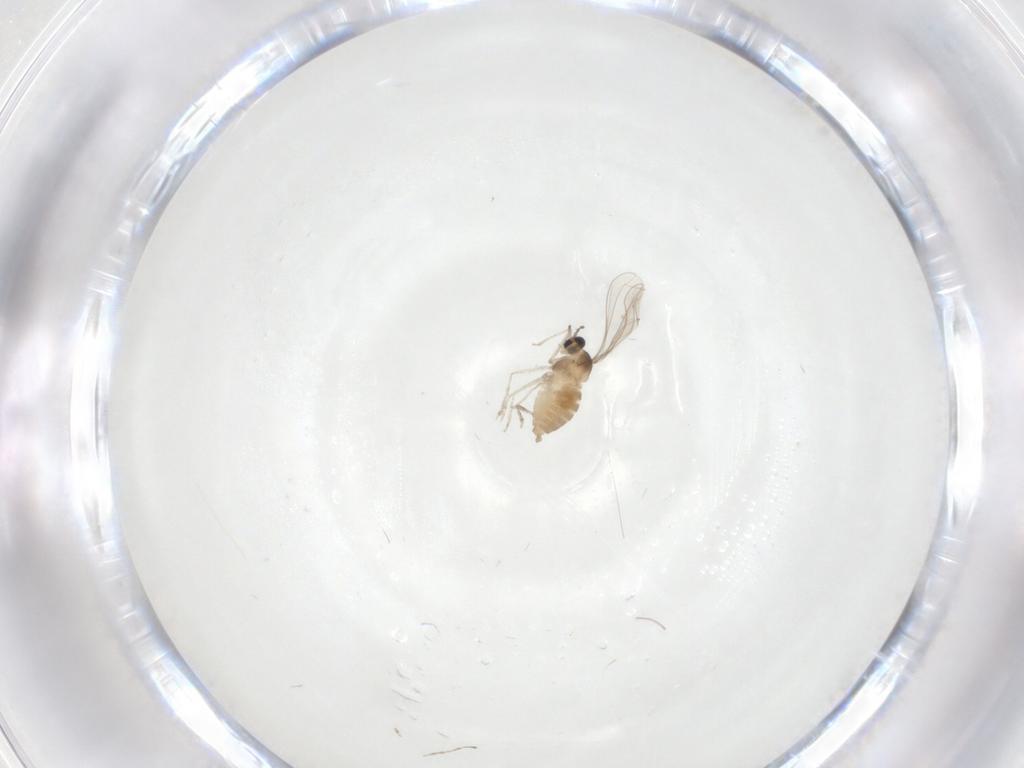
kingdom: Animalia
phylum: Arthropoda
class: Insecta
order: Diptera
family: Cecidomyiidae
